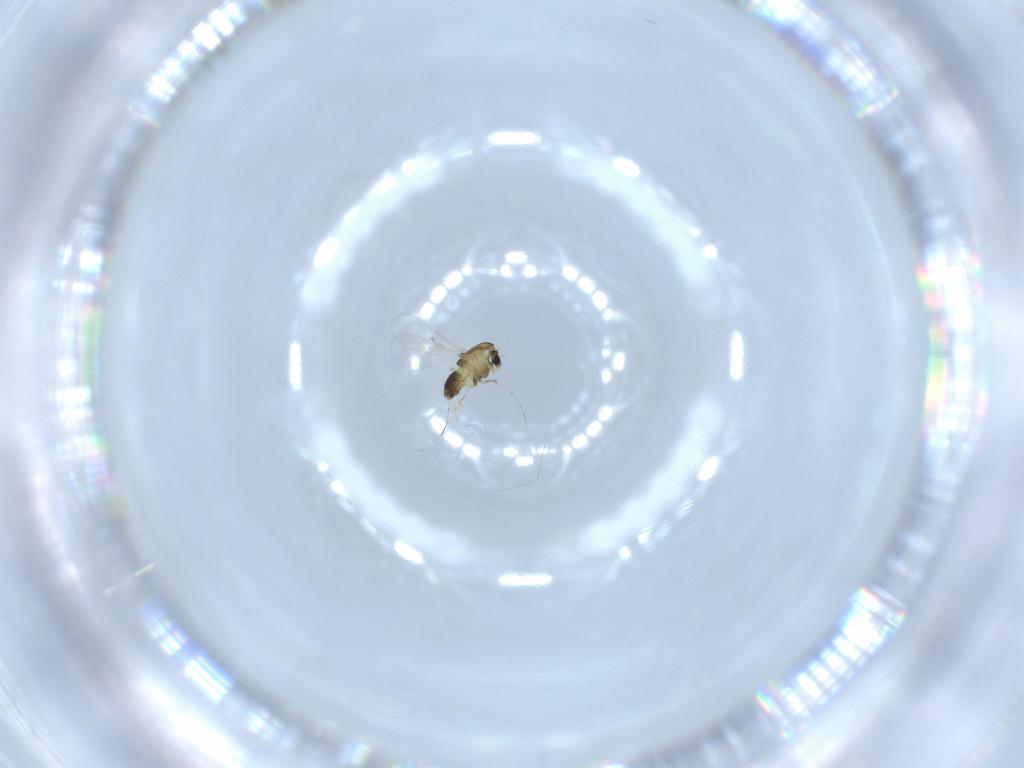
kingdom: Animalia
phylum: Arthropoda
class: Insecta
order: Diptera
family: Chironomidae
